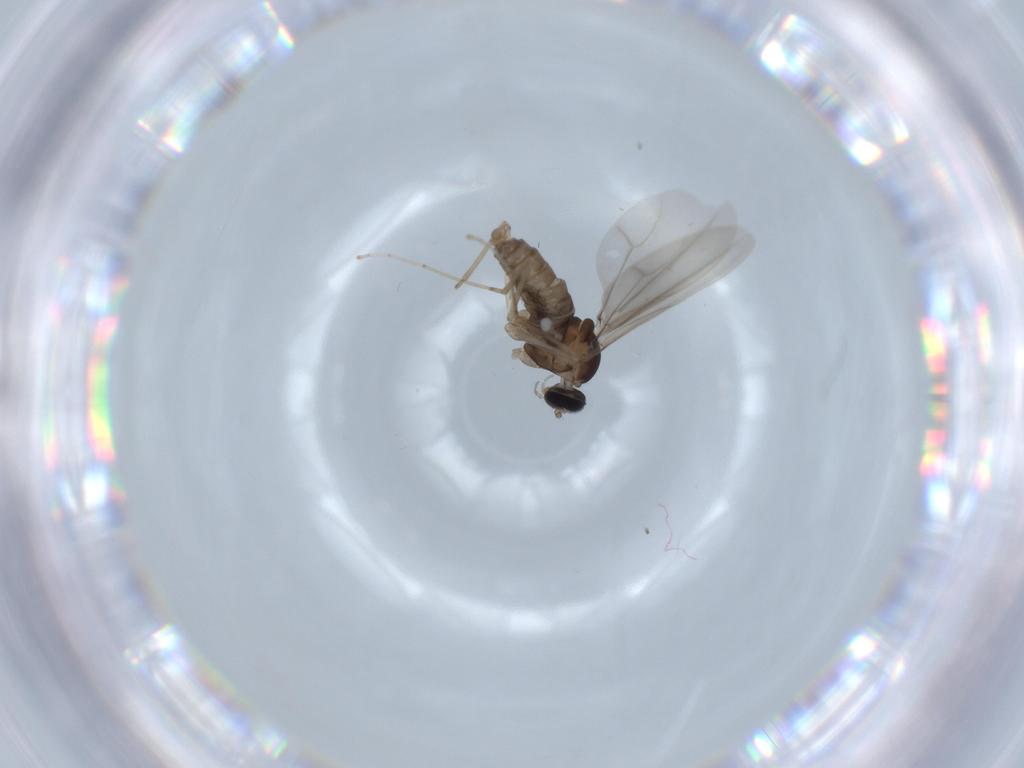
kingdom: Animalia
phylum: Arthropoda
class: Insecta
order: Diptera
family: Cecidomyiidae
